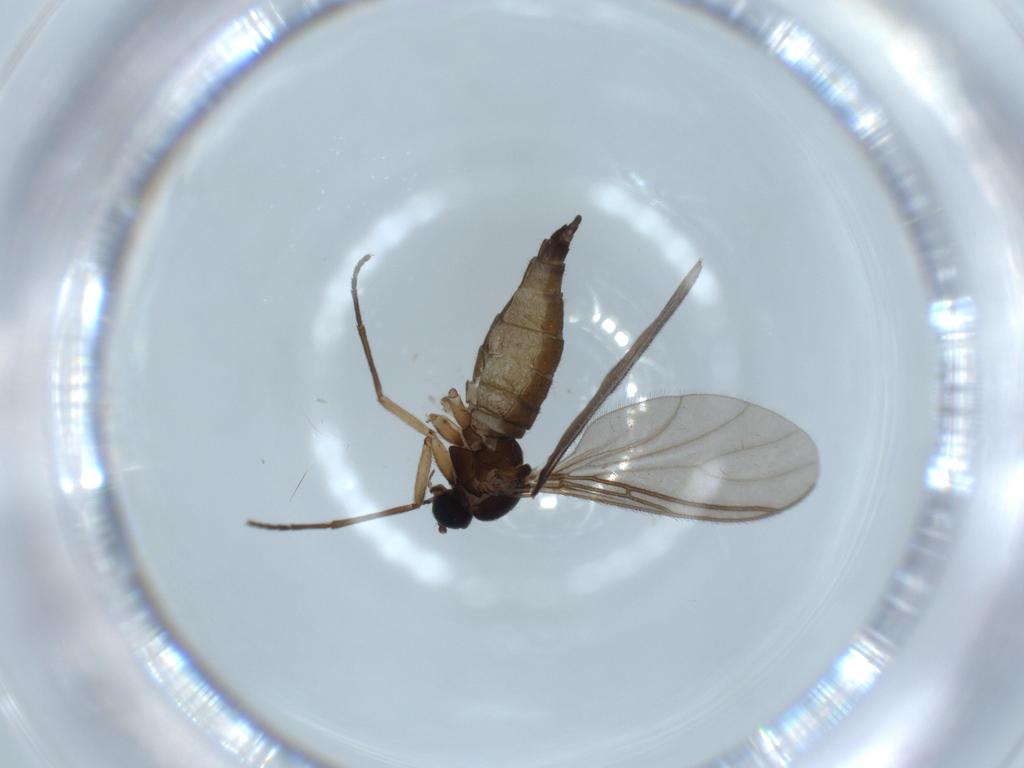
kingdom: Animalia
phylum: Arthropoda
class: Insecta
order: Diptera
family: Sciaridae
